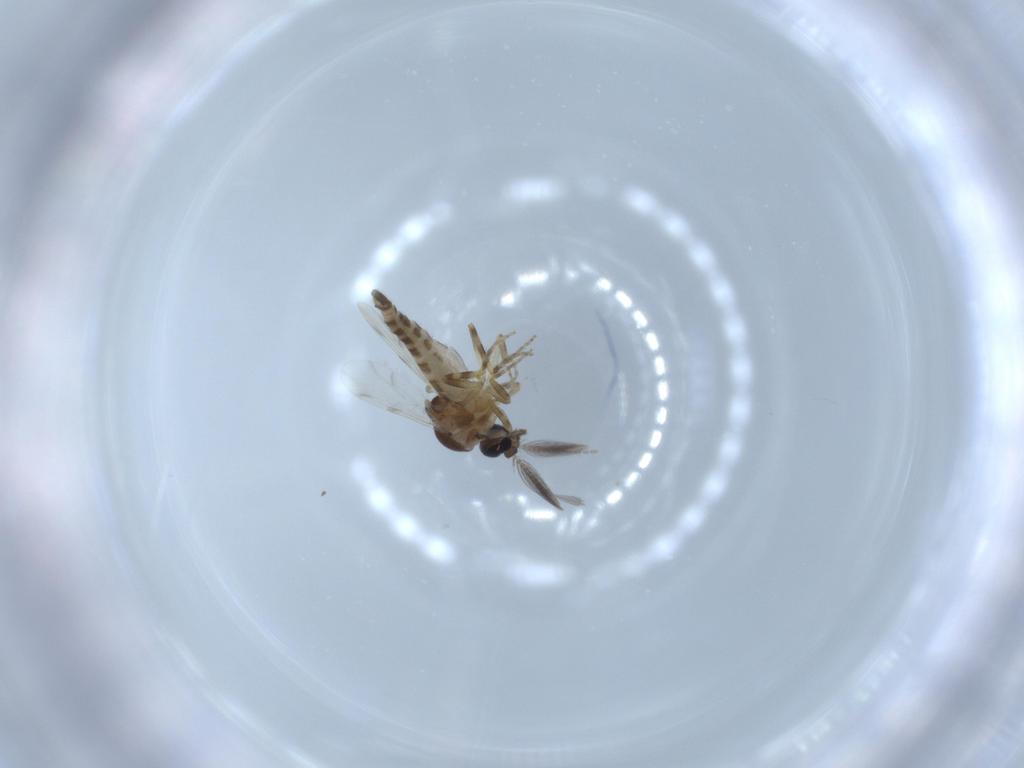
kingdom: Animalia
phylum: Arthropoda
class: Insecta
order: Diptera
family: Ceratopogonidae
